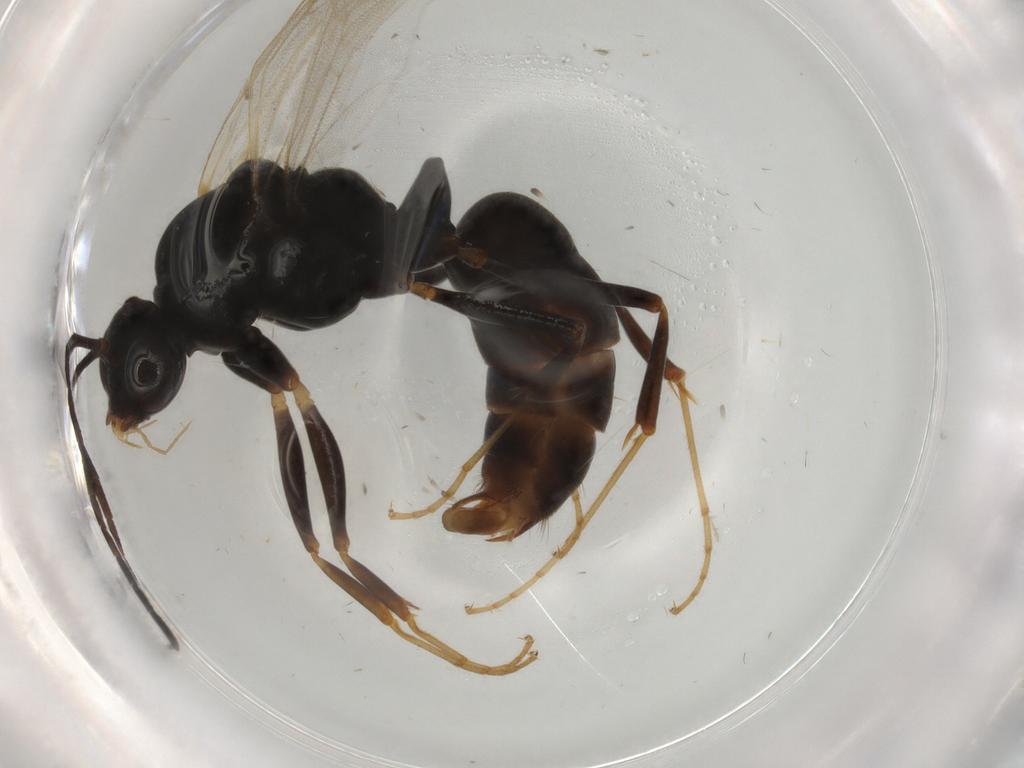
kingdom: Animalia
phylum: Arthropoda
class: Insecta
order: Hymenoptera
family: Formicidae
